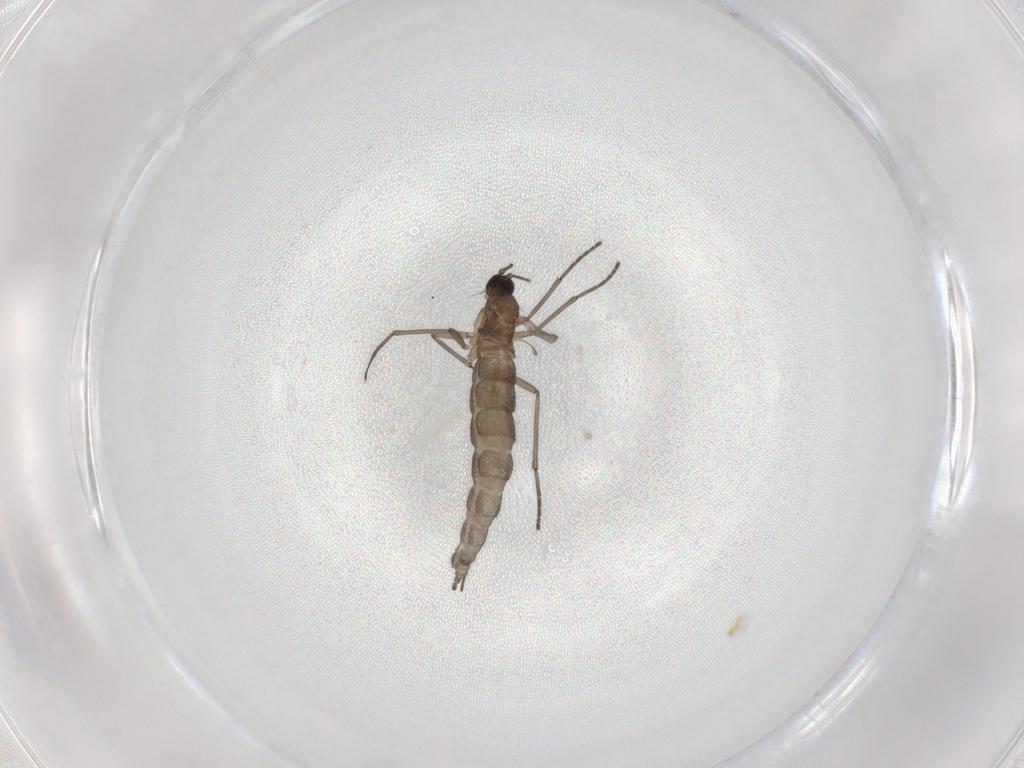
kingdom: Animalia
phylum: Arthropoda
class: Insecta
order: Diptera
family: Sciaridae
